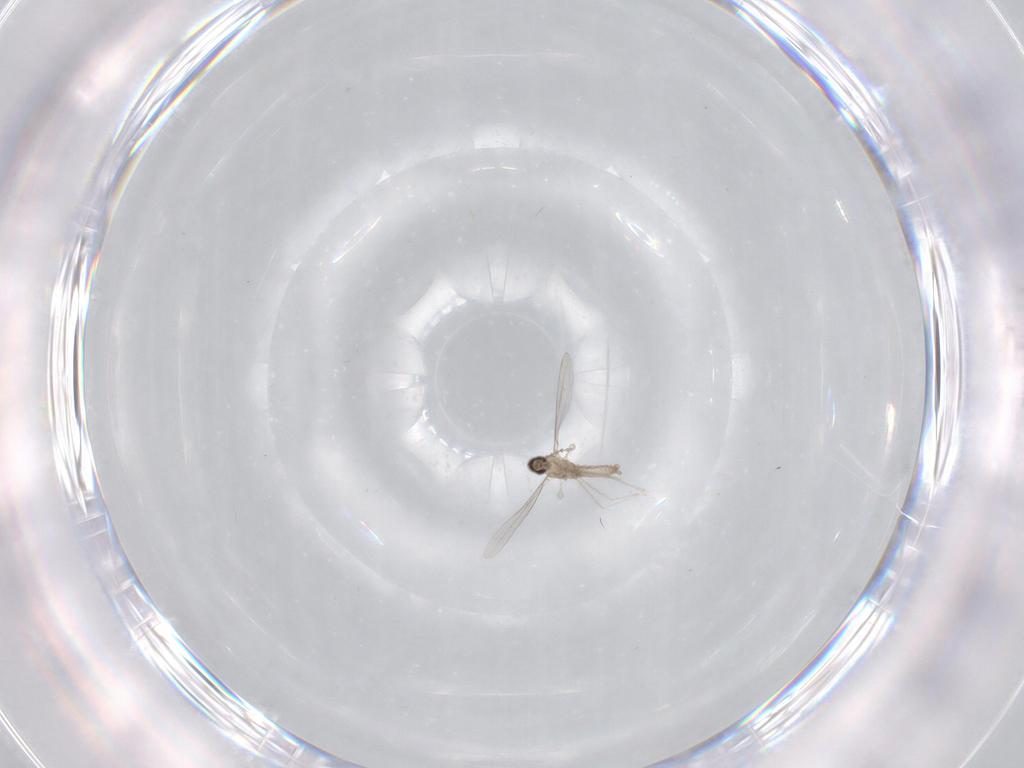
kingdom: Animalia
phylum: Arthropoda
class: Insecta
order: Diptera
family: Cecidomyiidae
